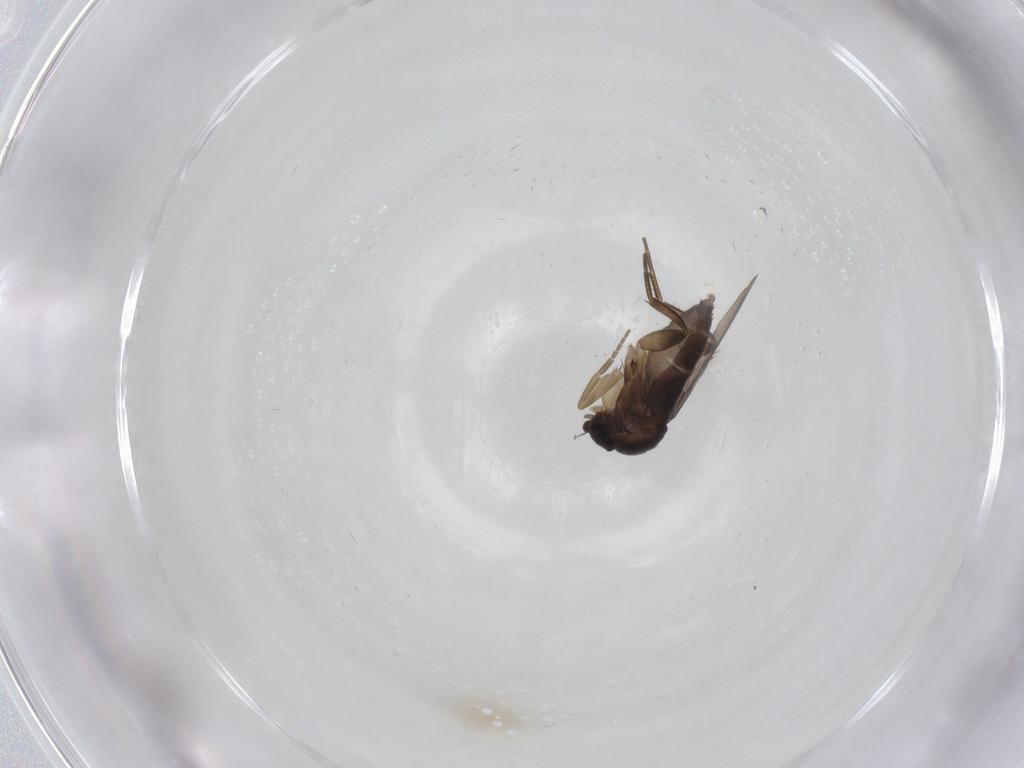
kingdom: Animalia
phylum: Arthropoda
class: Insecta
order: Diptera
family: Phoridae
